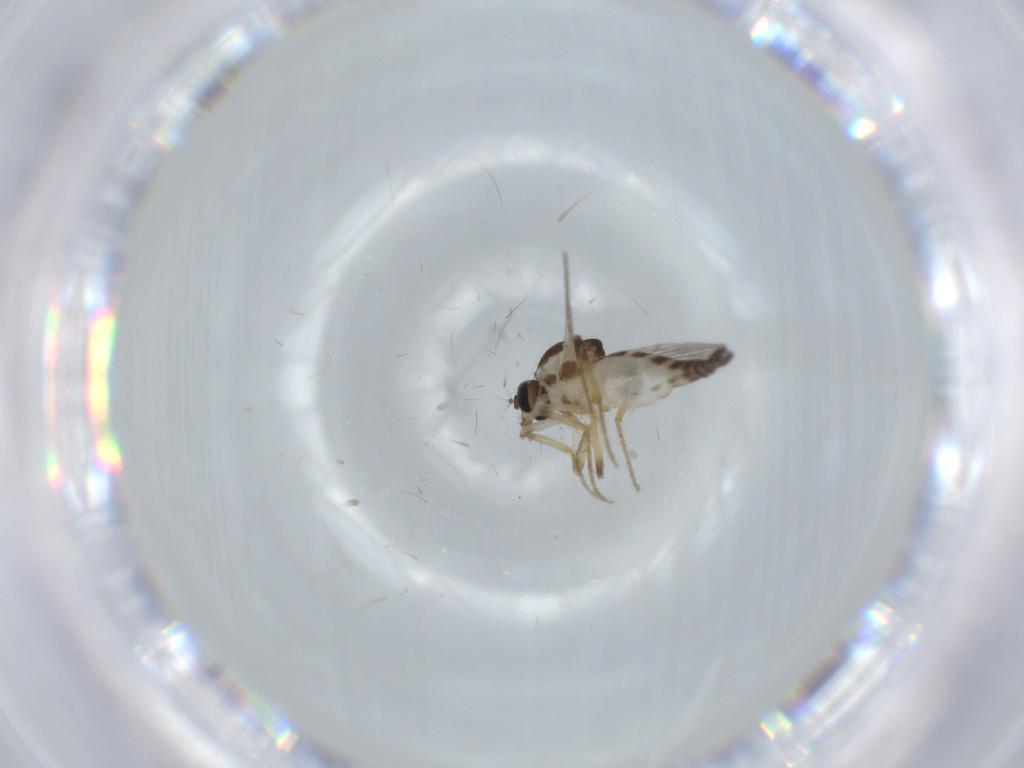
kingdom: Animalia
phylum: Arthropoda
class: Insecta
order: Diptera
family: Ceratopogonidae
